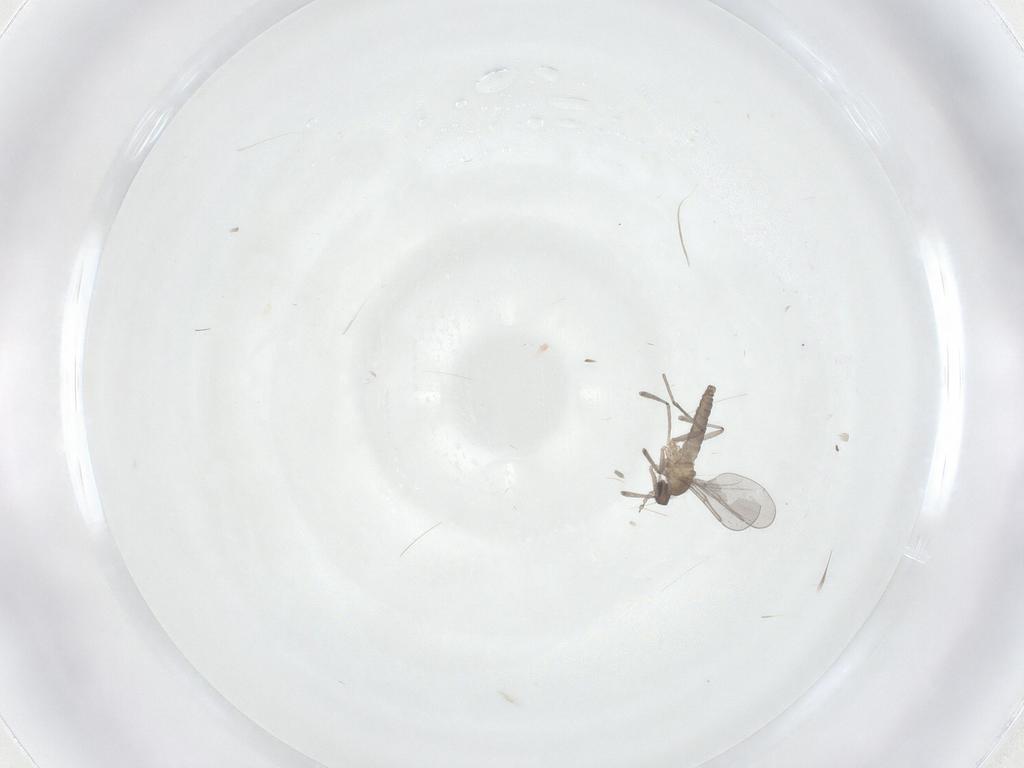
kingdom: Animalia
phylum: Arthropoda
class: Insecta
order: Diptera
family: Cecidomyiidae
